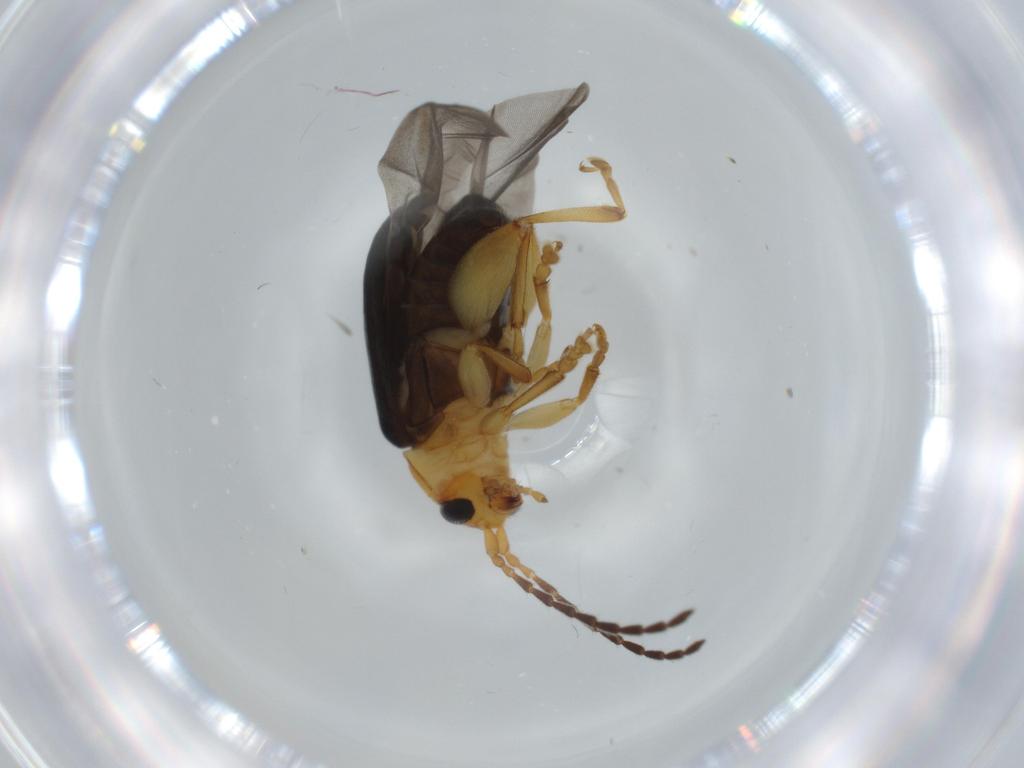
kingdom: Animalia
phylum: Arthropoda
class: Insecta
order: Coleoptera
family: Chrysomelidae
